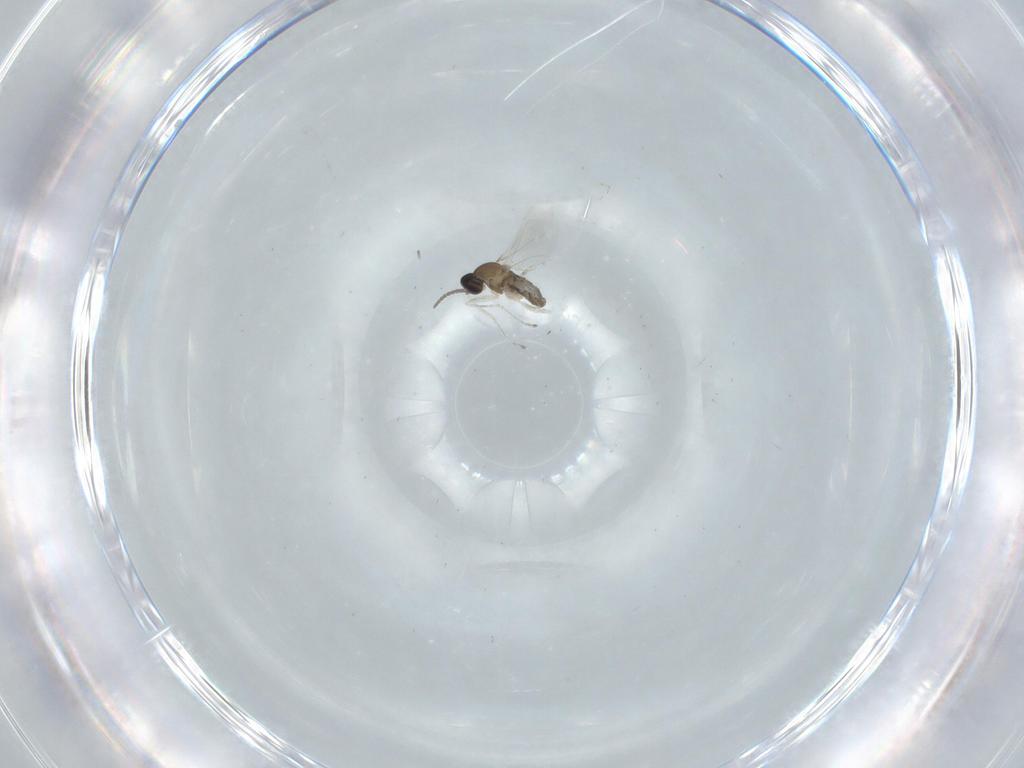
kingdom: Animalia
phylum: Arthropoda
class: Insecta
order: Diptera
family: Cecidomyiidae
